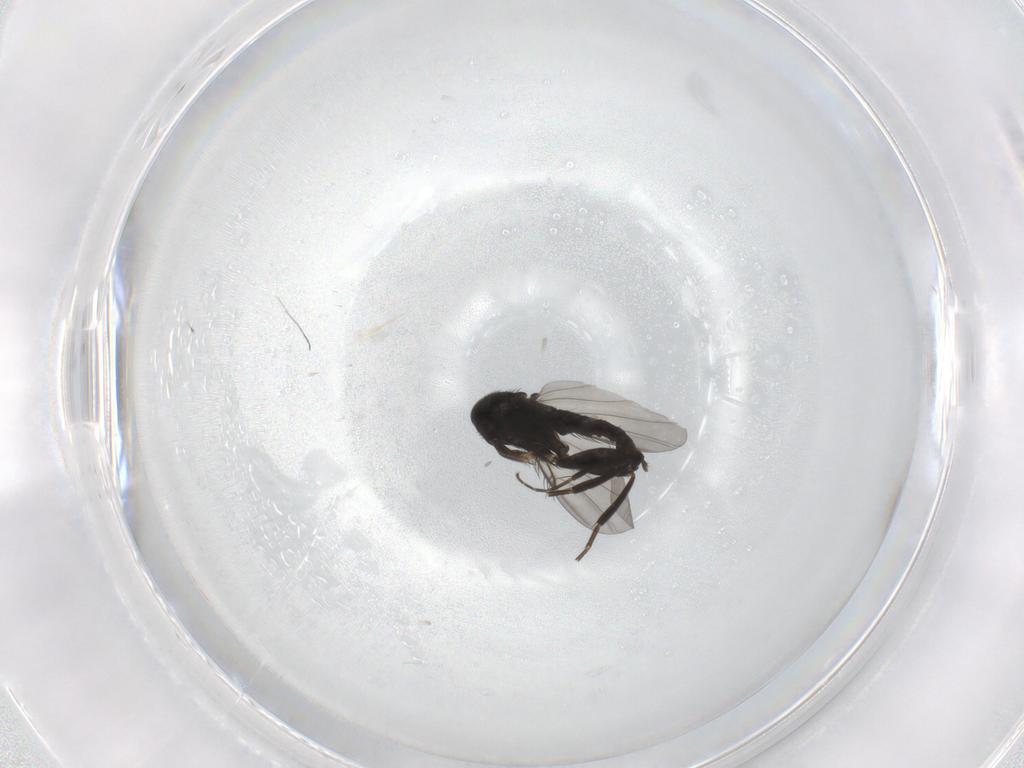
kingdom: Animalia
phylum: Arthropoda
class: Insecta
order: Diptera
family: Phoridae
